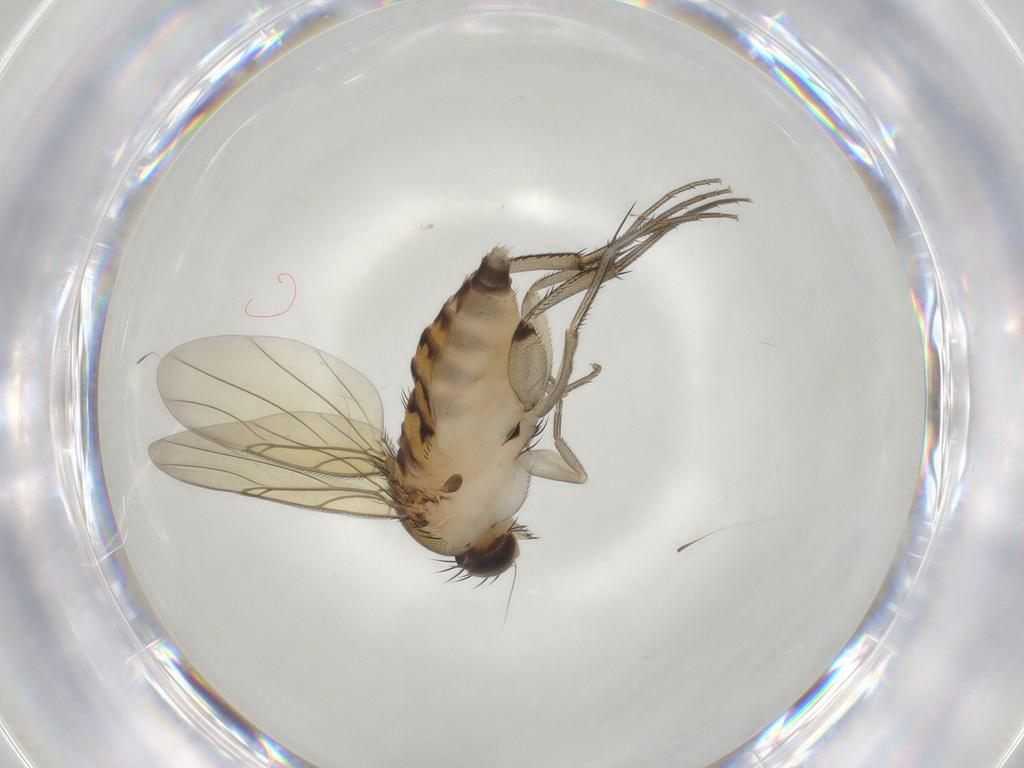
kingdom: Animalia
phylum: Arthropoda
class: Insecta
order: Diptera
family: Phoridae
